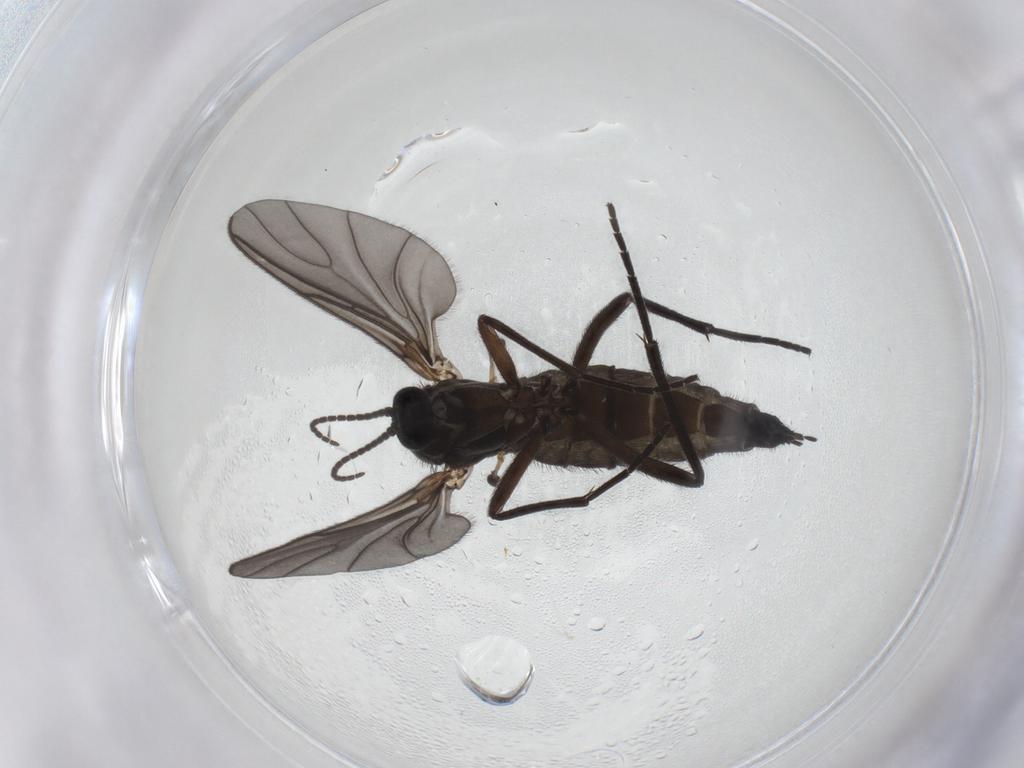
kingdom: Animalia
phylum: Arthropoda
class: Insecta
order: Diptera
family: Sciaridae
